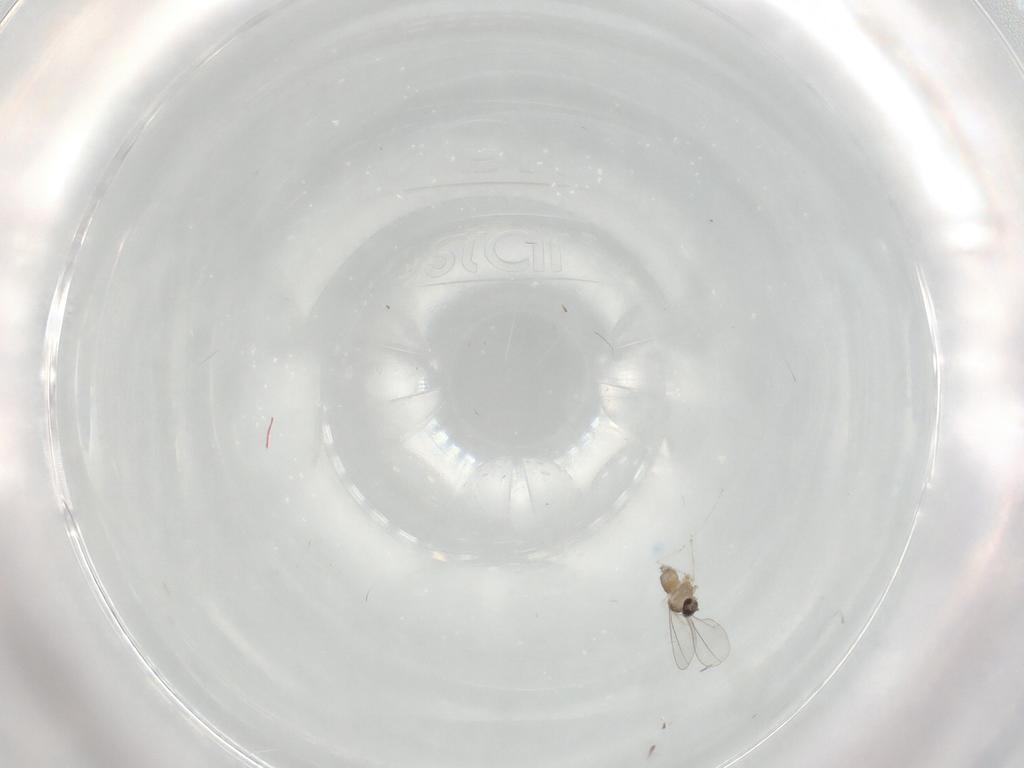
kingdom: Animalia
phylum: Arthropoda
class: Insecta
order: Diptera
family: Cecidomyiidae
